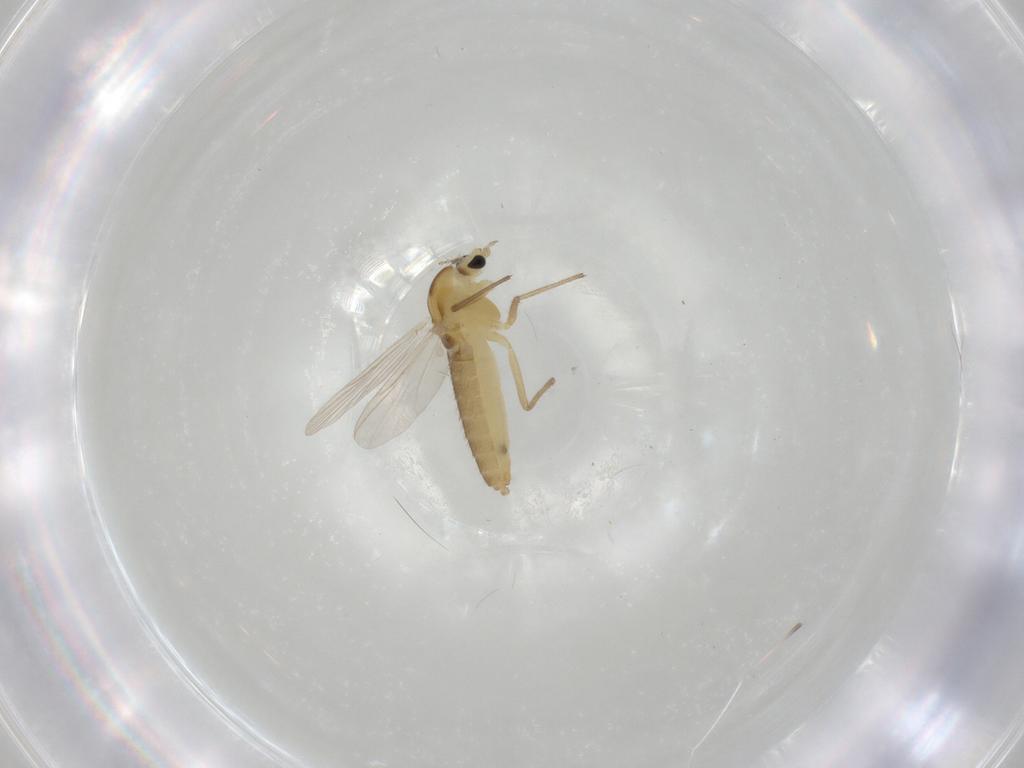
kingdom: Animalia
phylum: Arthropoda
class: Insecta
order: Diptera
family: Chironomidae
